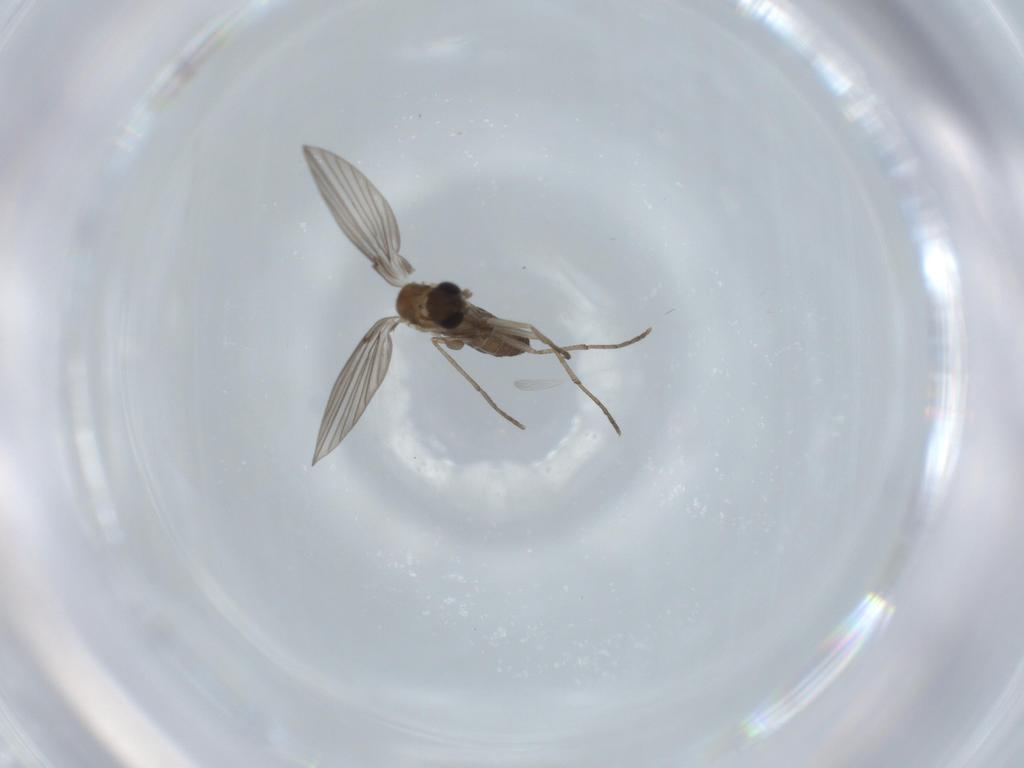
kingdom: Animalia
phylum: Arthropoda
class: Insecta
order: Diptera
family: Psychodidae
